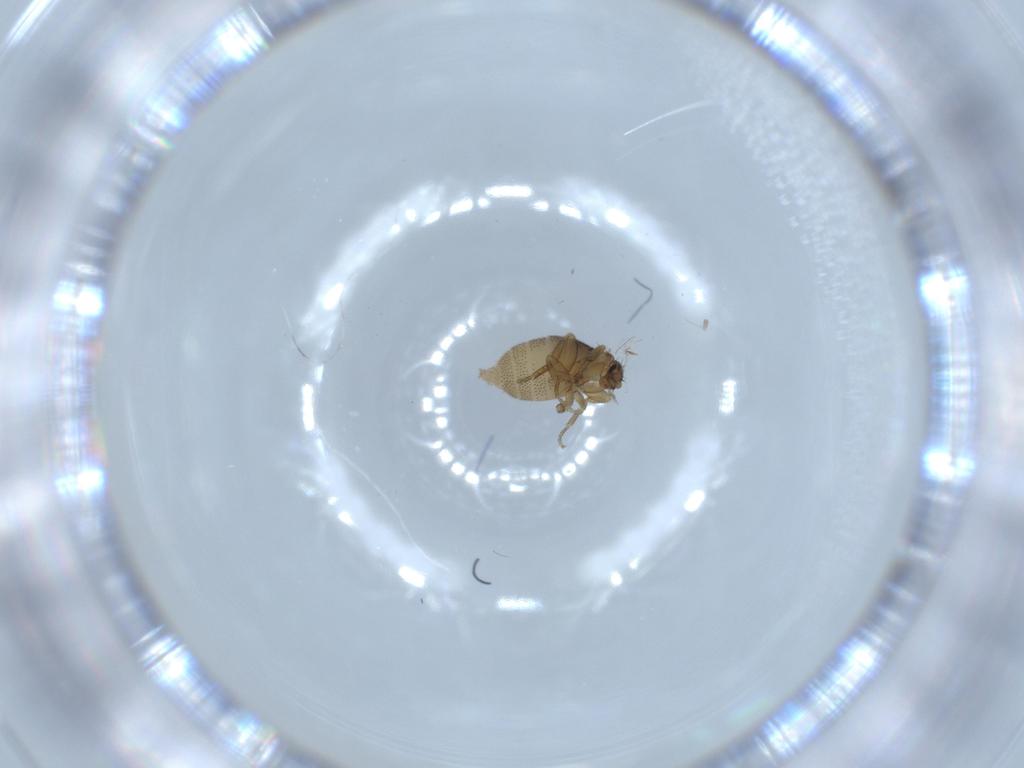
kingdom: Animalia
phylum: Arthropoda
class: Insecta
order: Diptera
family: Phoridae
